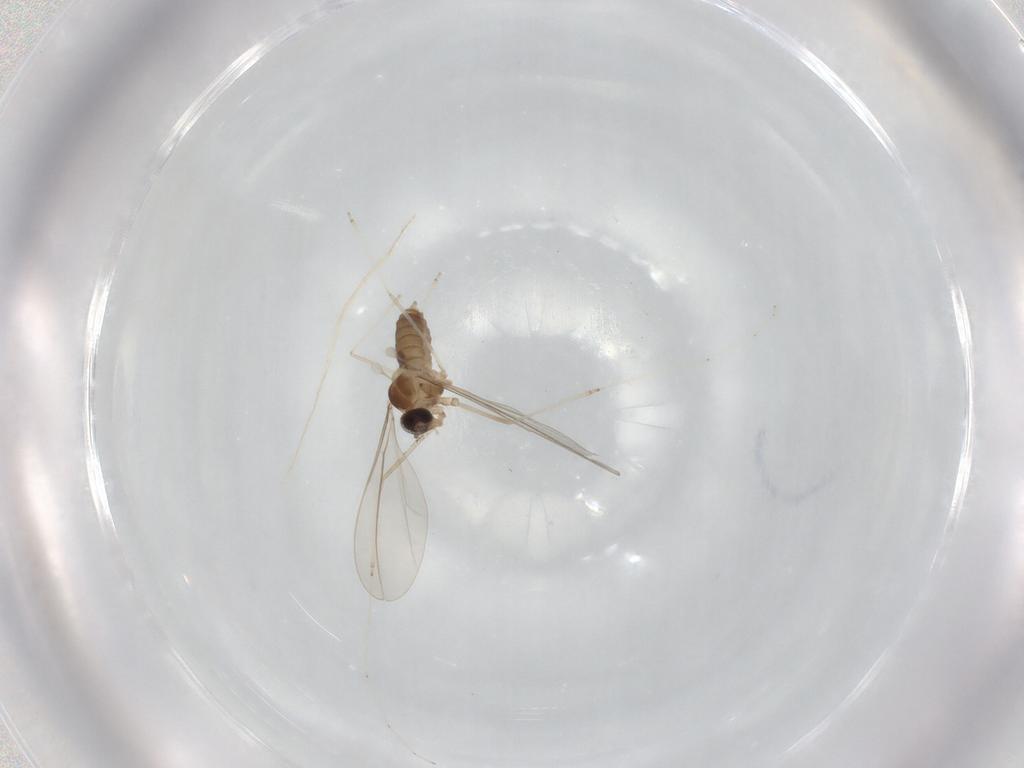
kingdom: Animalia
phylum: Arthropoda
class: Insecta
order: Diptera
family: Cecidomyiidae
